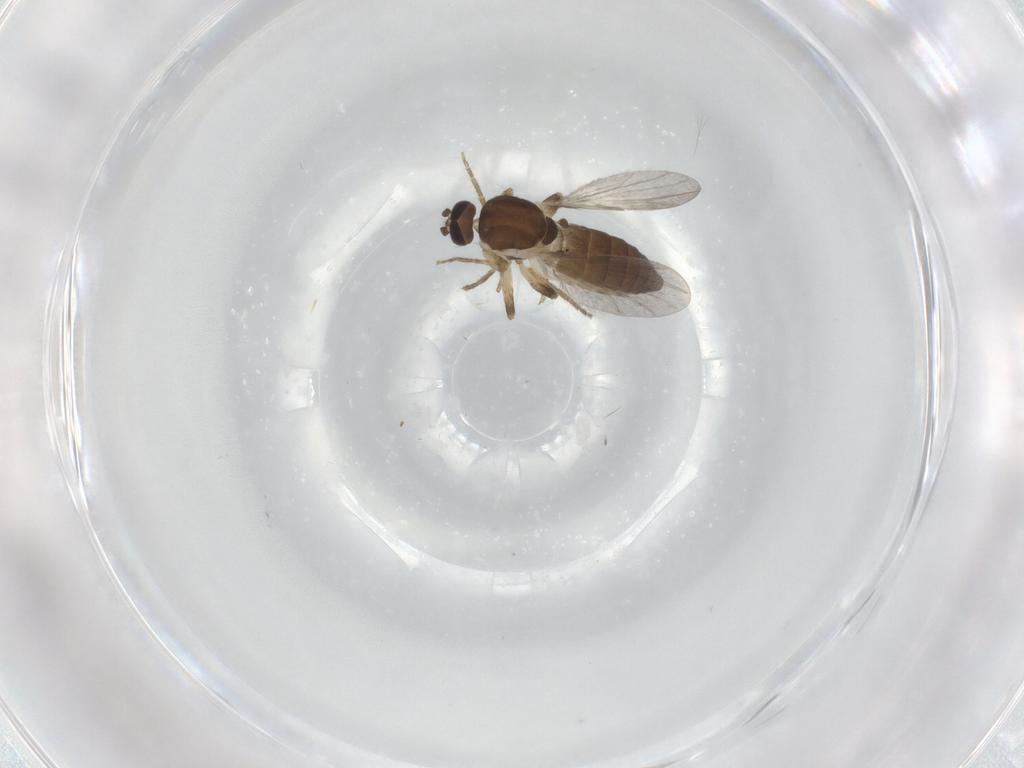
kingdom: Animalia
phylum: Arthropoda
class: Insecta
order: Diptera
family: Ceratopogonidae
